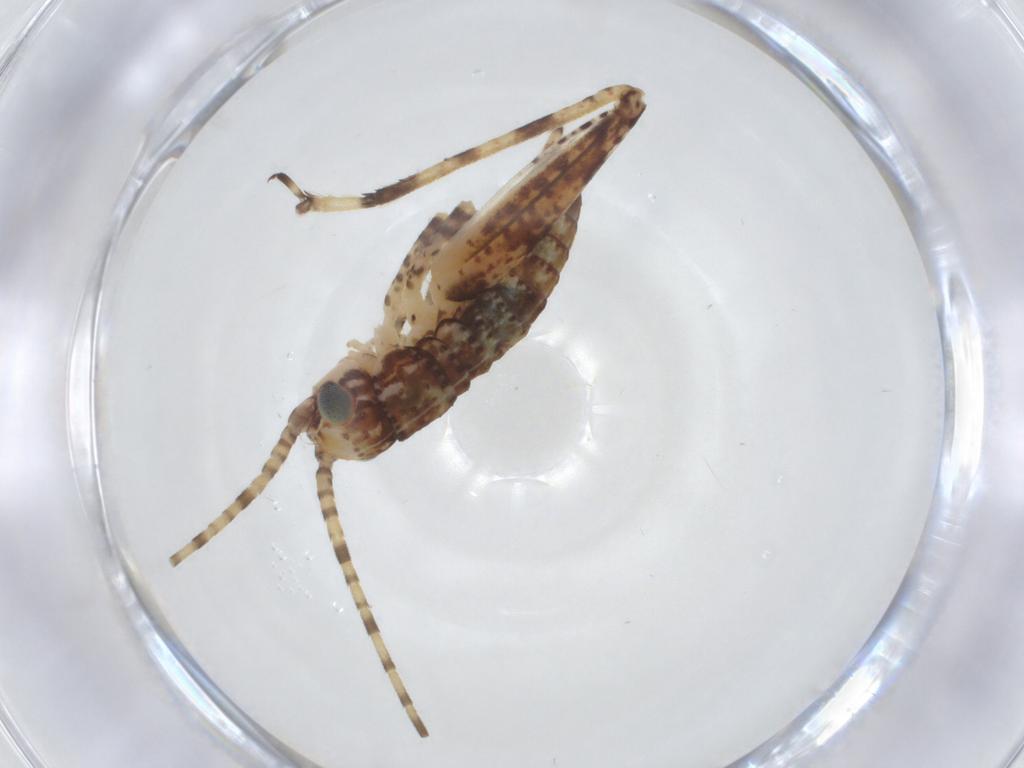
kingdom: Animalia
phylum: Arthropoda
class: Insecta
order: Orthoptera
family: Gryllidae
